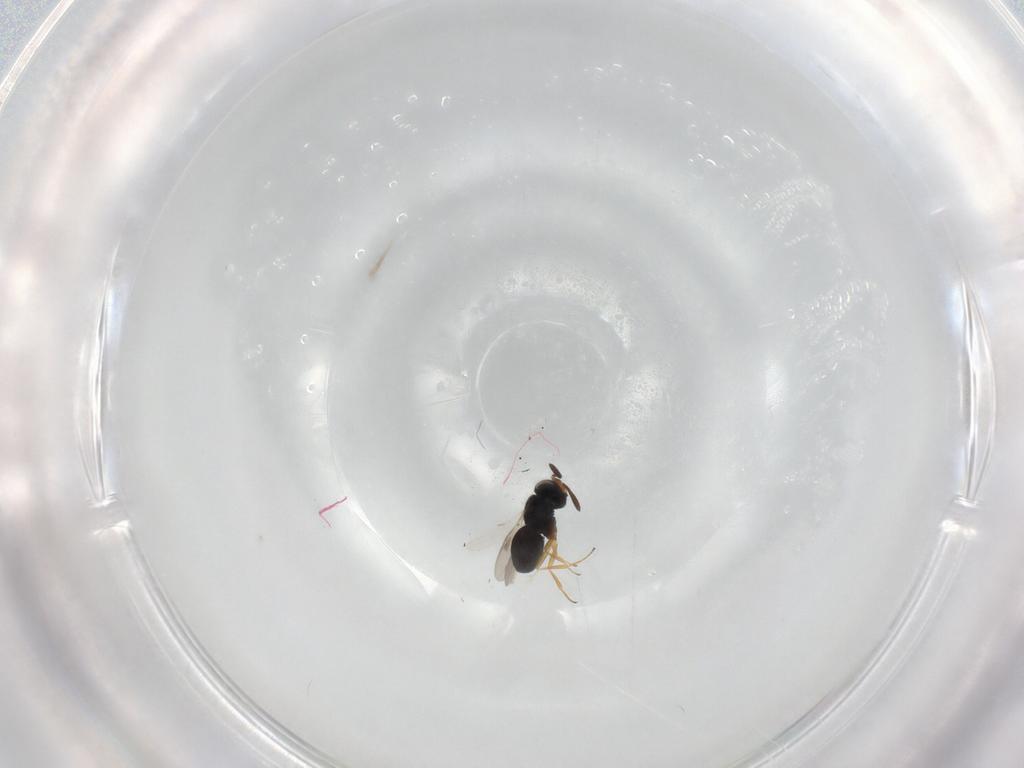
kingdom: Animalia
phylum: Arthropoda
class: Insecta
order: Hymenoptera
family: Scelionidae
